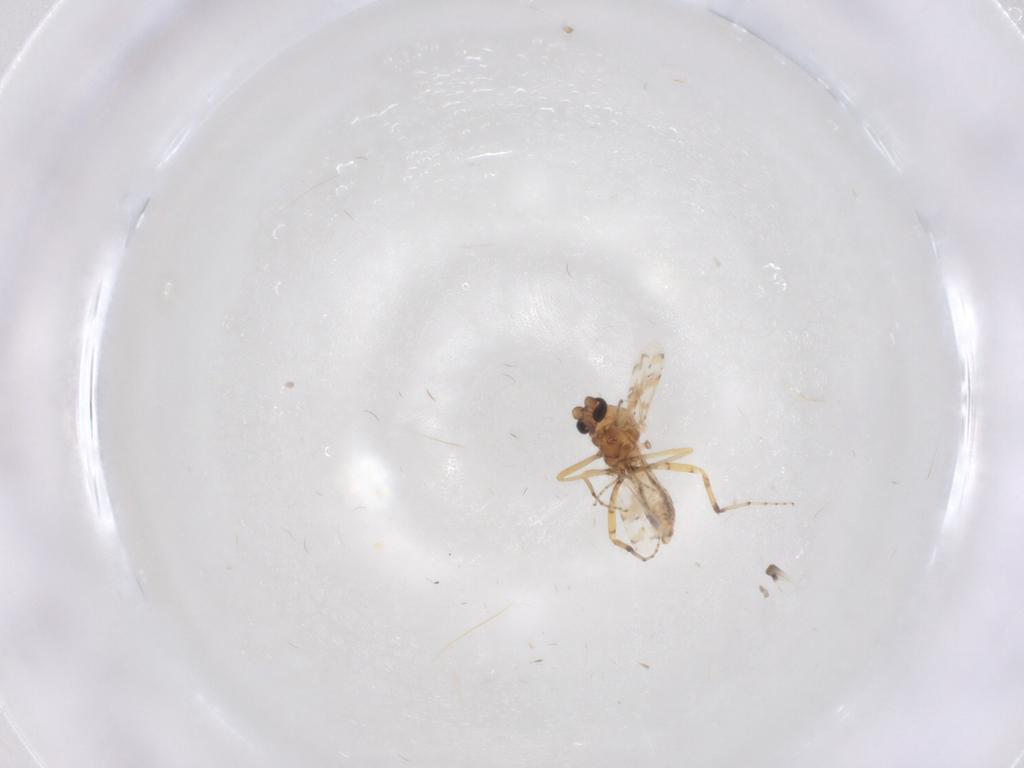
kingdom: Animalia
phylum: Arthropoda
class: Insecta
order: Diptera
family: Ceratopogonidae
